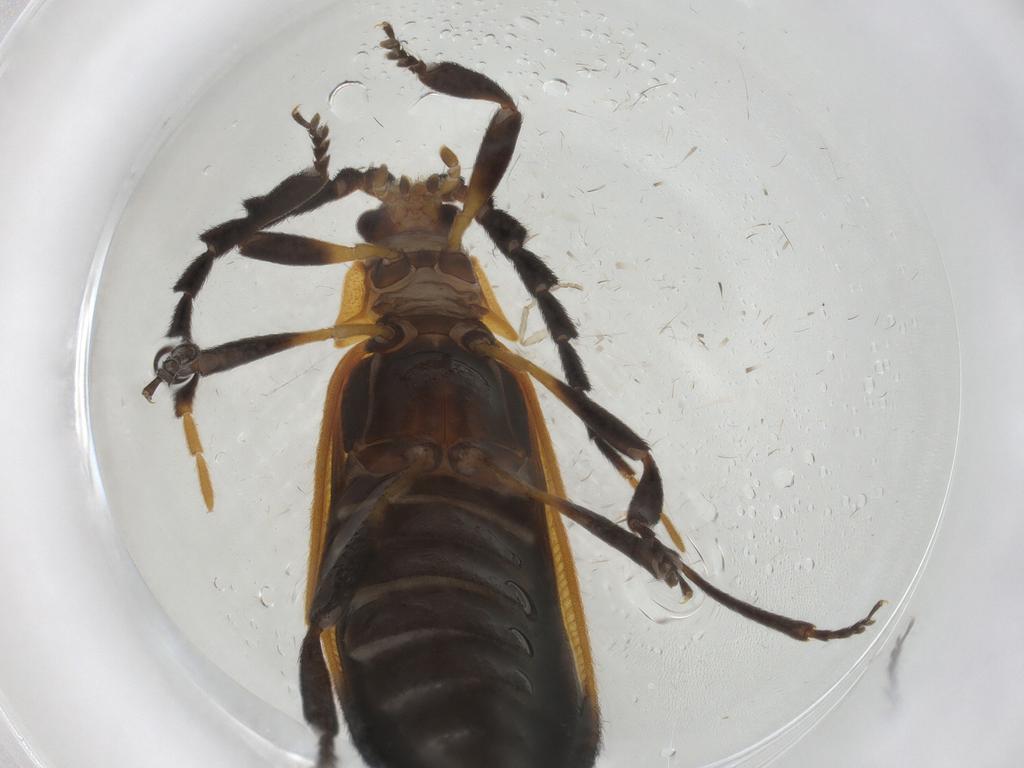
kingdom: Animalia
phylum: Arthropoda
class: Insecta
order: Coleoptera
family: Lycidae
